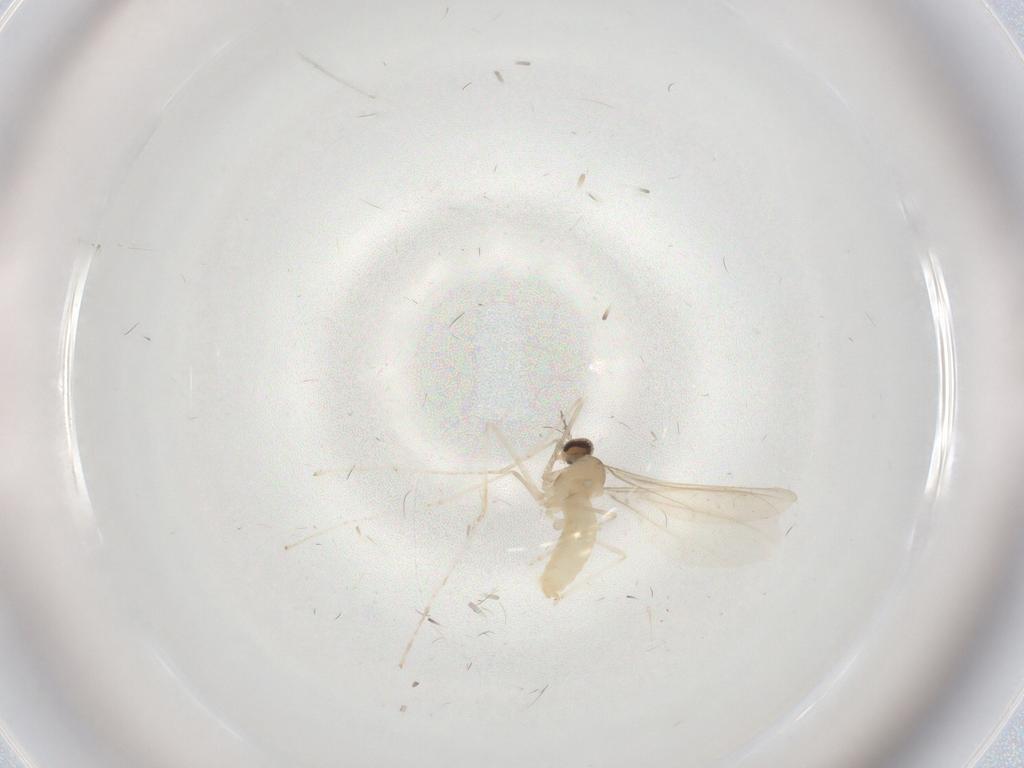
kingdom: Animalia
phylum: Arthropoda
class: Insecta
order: Diptera
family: Cecidomyiidae
